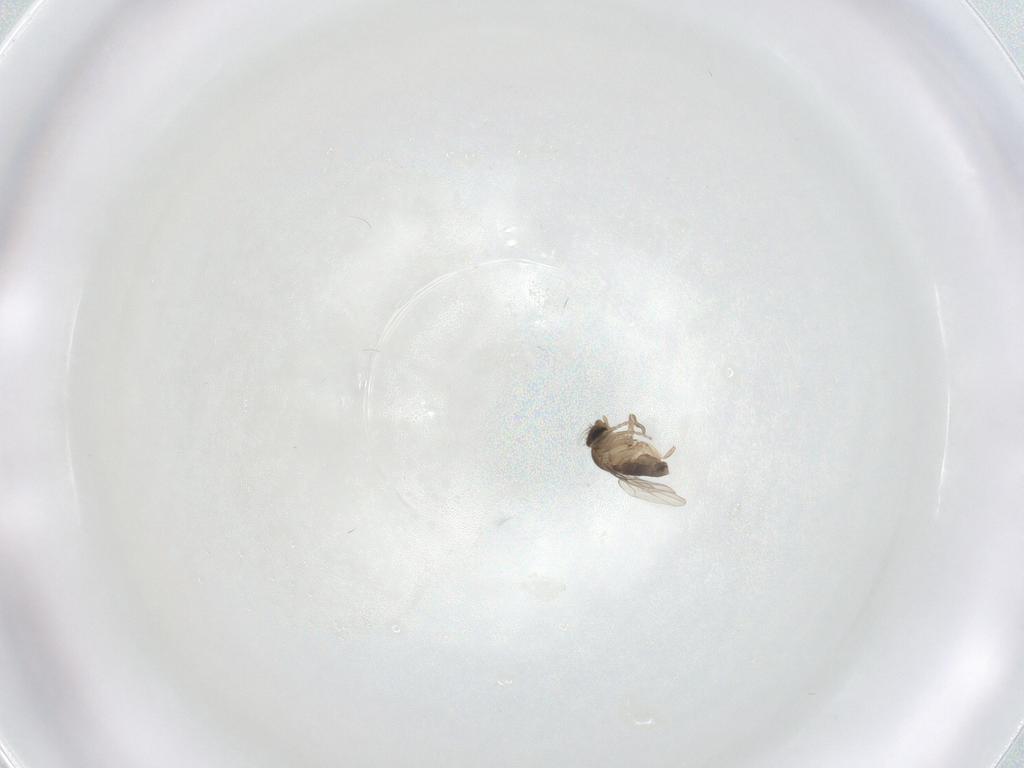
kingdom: Animalia
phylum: Arthropoda
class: Insecta
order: Diptera
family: Phoridae
